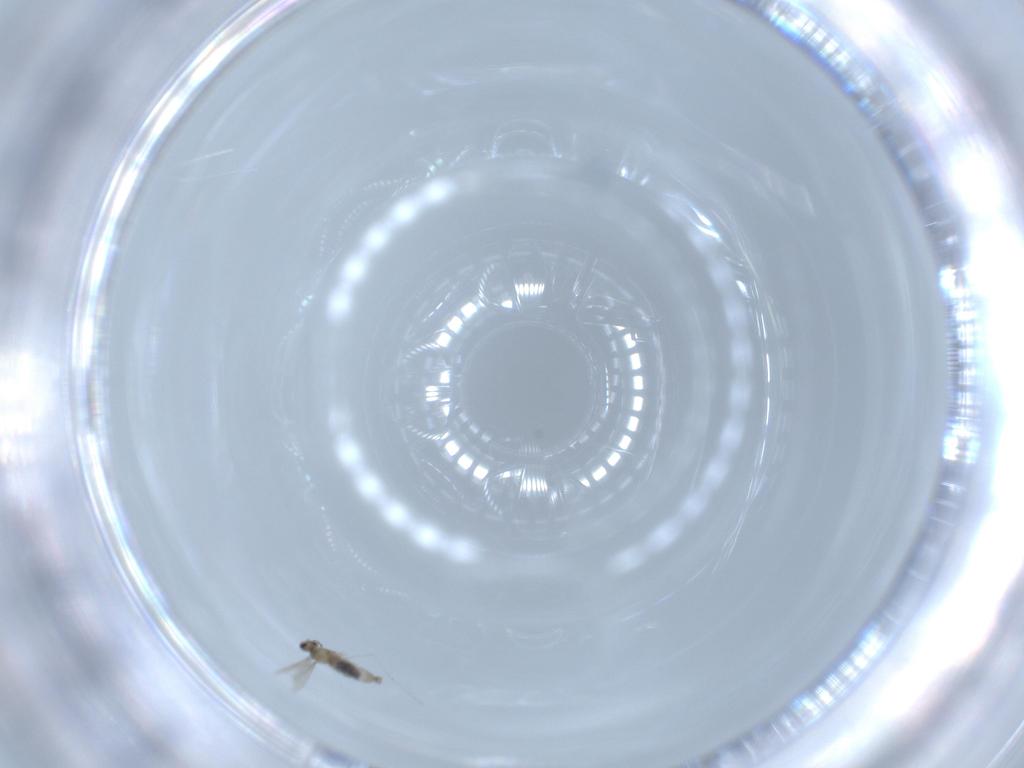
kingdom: Animalia
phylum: Arthropoda
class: Insecta
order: Diptera
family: Cecidomyiidae
